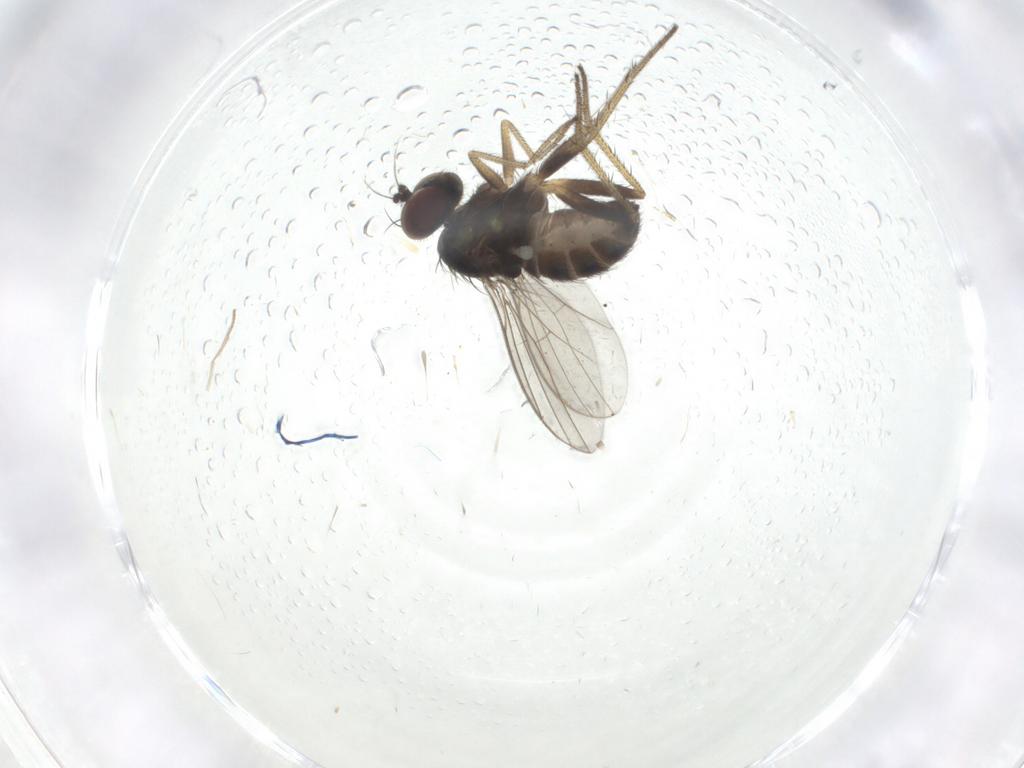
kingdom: Animalia
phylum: Arthropoda
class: Insecta
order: Diptera
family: Psychodidae
